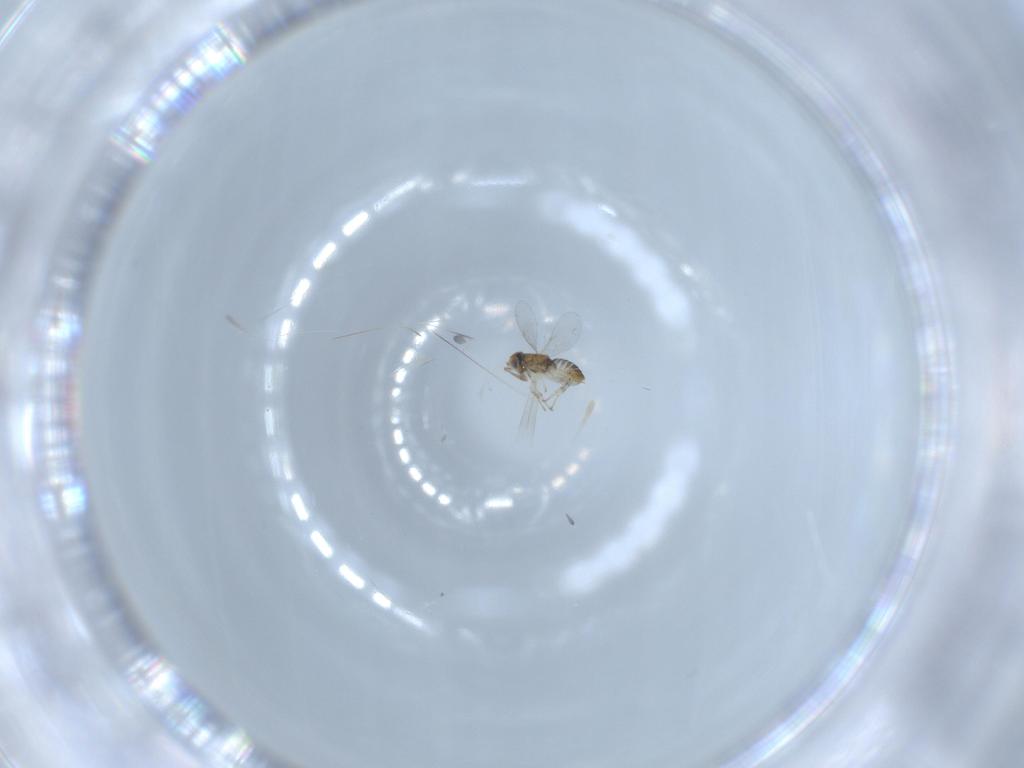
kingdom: Animalia
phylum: Arthropoda
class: Insecta
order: Hymenoptera
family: Encyrtidae
